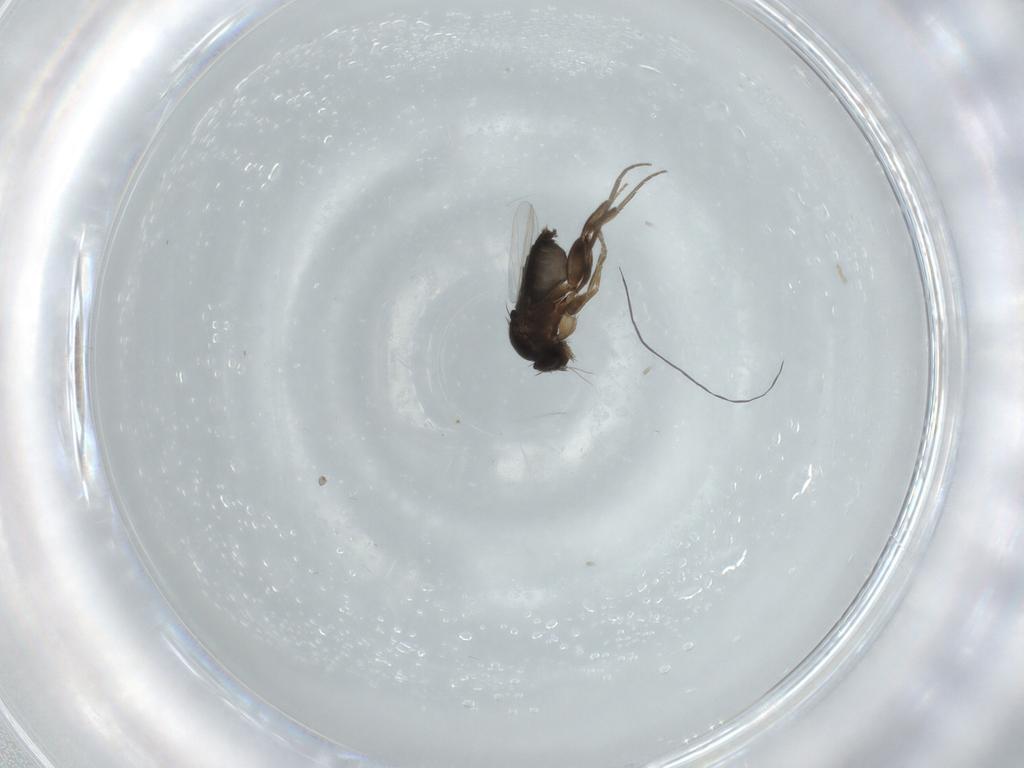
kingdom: Animalia
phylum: Arthropoda
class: Insecta
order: Diptera
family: Phoridae
